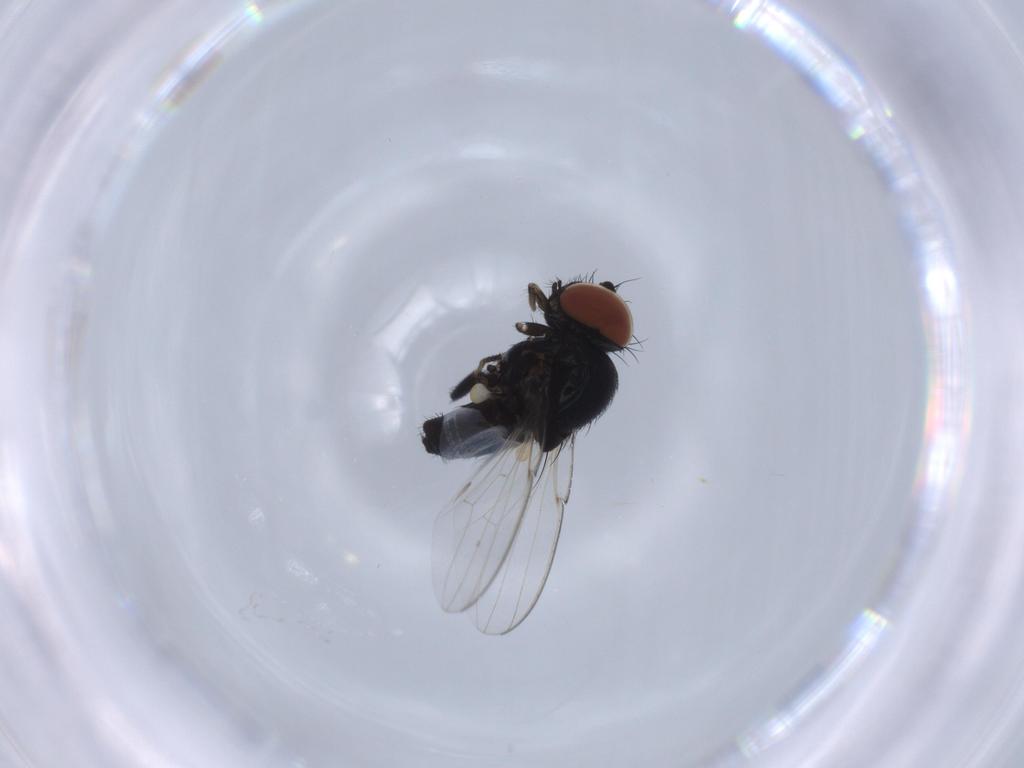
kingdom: Animalia
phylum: Arthropoda
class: Insecta
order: Diptera
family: Milichiidae
